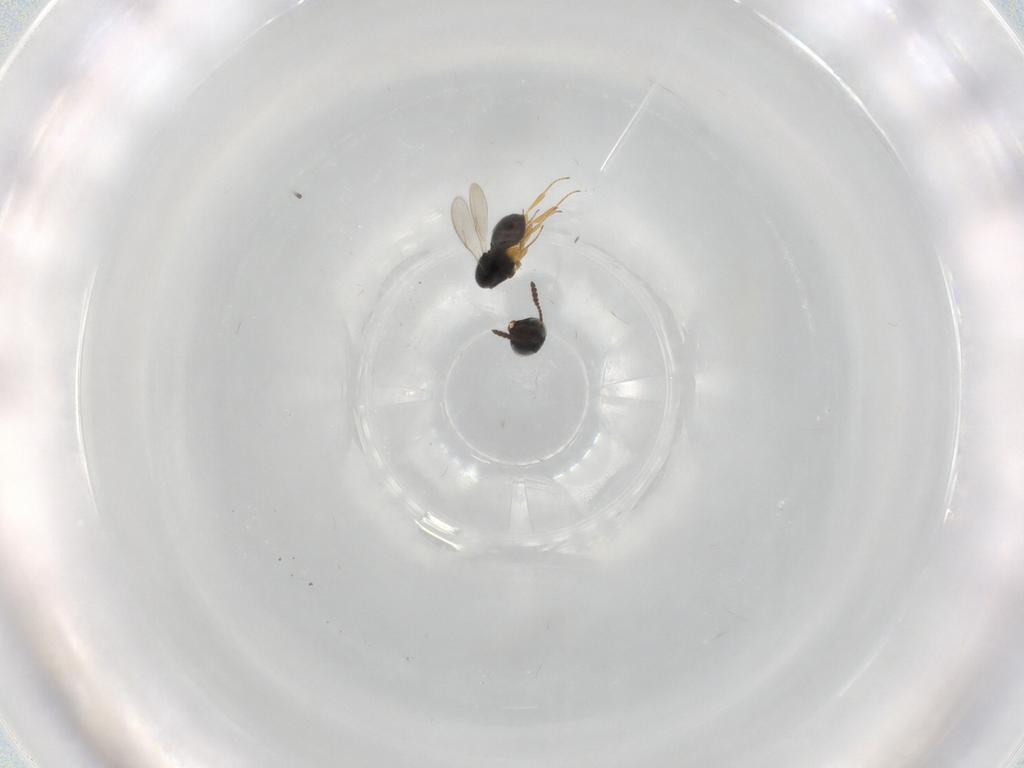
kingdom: Animalia
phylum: Arthropoda
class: Insecta
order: Hymenoptera
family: Scelionidae
